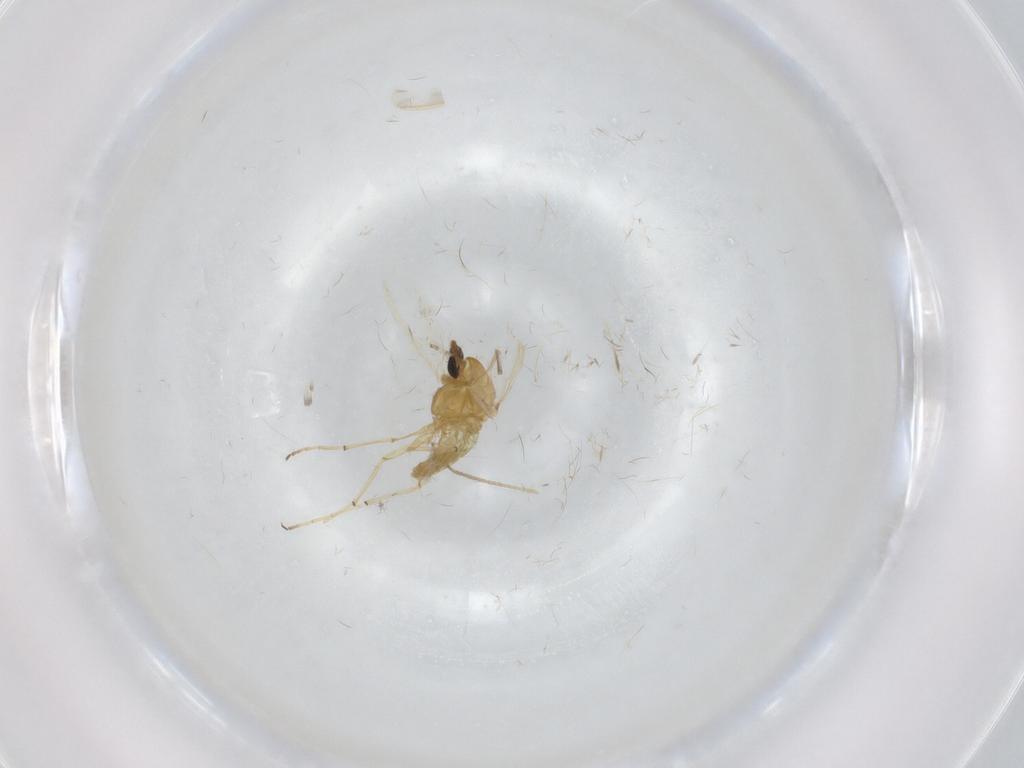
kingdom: Animalia
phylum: Arthropoda
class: Insecta
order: Diptera
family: Chironomidae
